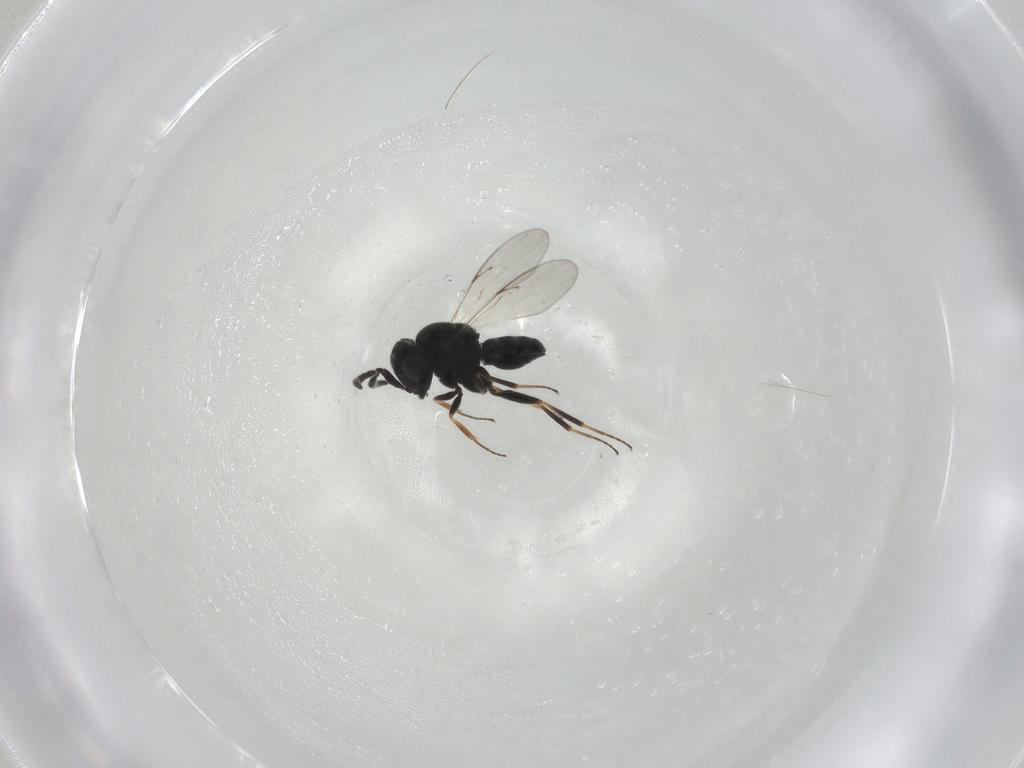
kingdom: Animalia
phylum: Arthropoda
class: Insecta
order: Hymenoptera
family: Scelionidae
